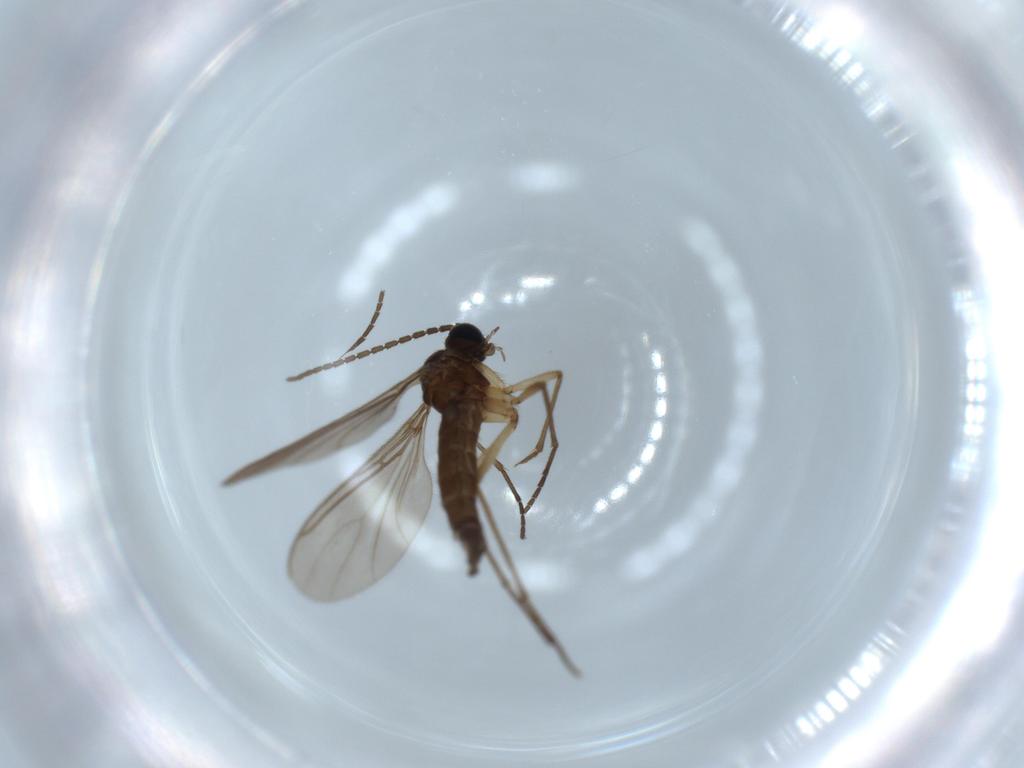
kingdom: Animalia
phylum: Arthropoda
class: Insecta
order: Diptera
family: Sciaridae
